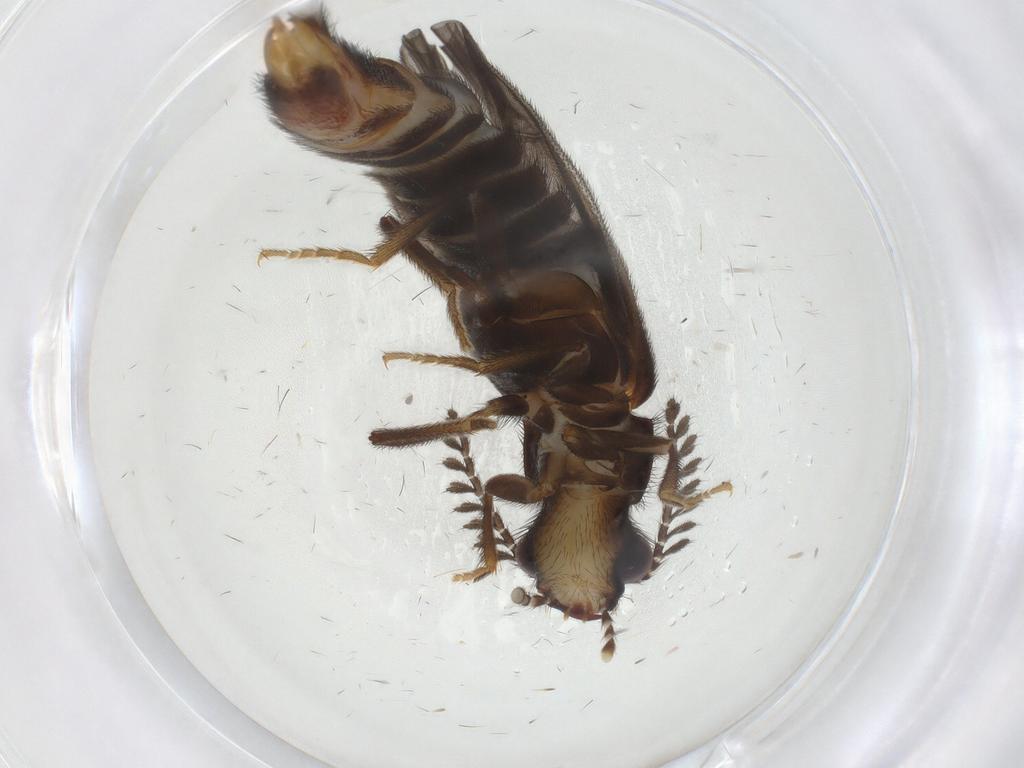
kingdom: Animalia
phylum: Arthropoda
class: Insecta
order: Coleoptera
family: Phengodidae
